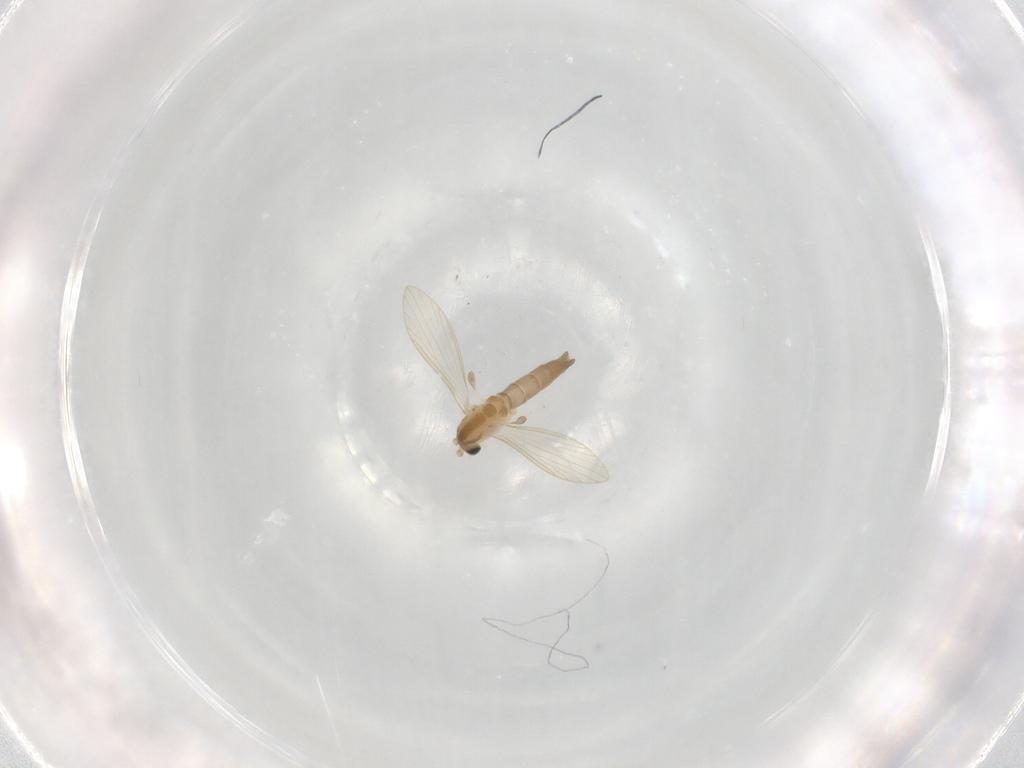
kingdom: Animalia
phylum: Arthropoda
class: Insecta
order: Diptera
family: Psychodidae
